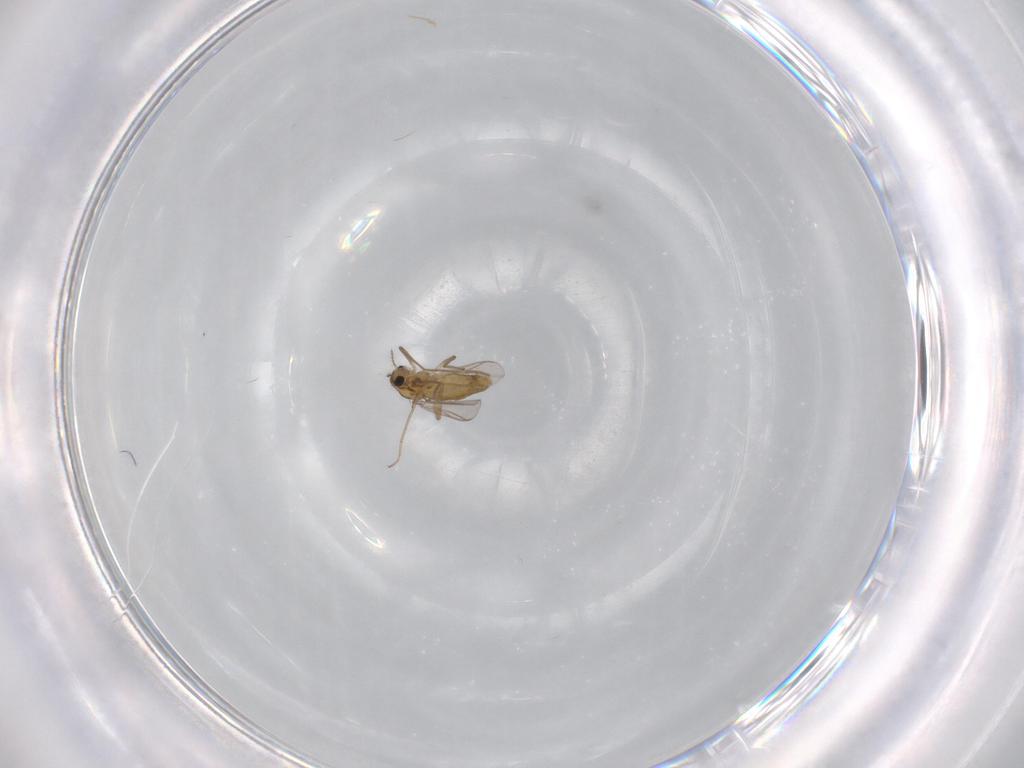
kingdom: Animalia
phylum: Arthropoda
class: Insecta
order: Diptera
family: Chironomidae
